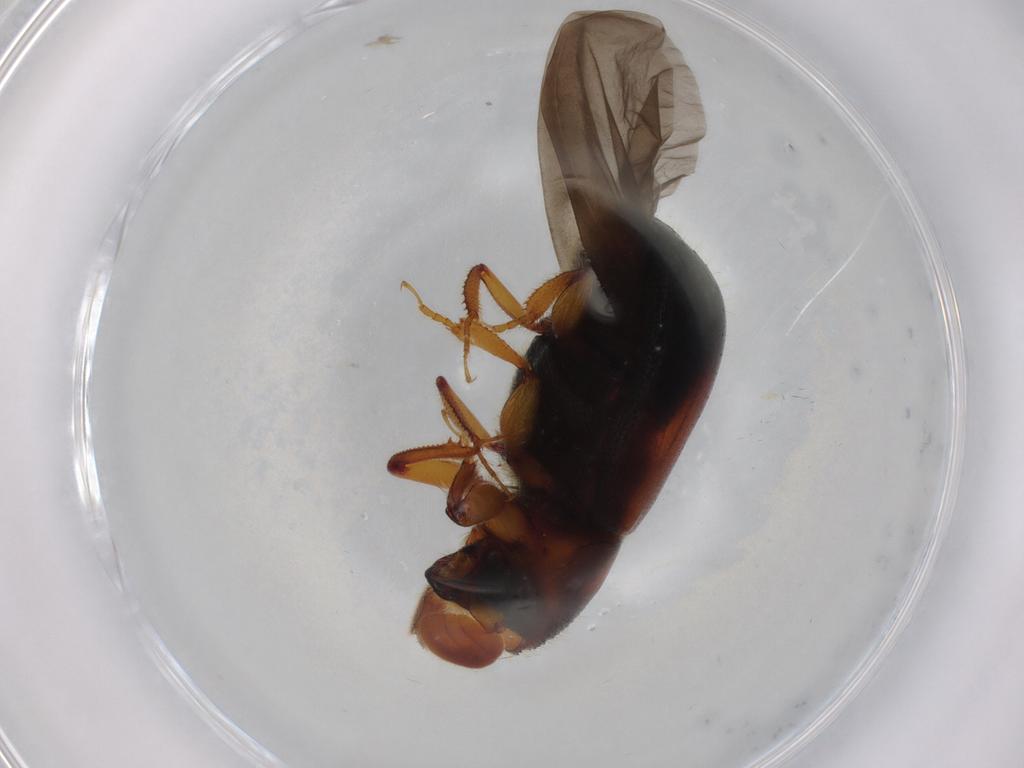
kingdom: Animalia
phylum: Arthropoda
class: Insecta
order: Coleoptera
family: Curculionidae
